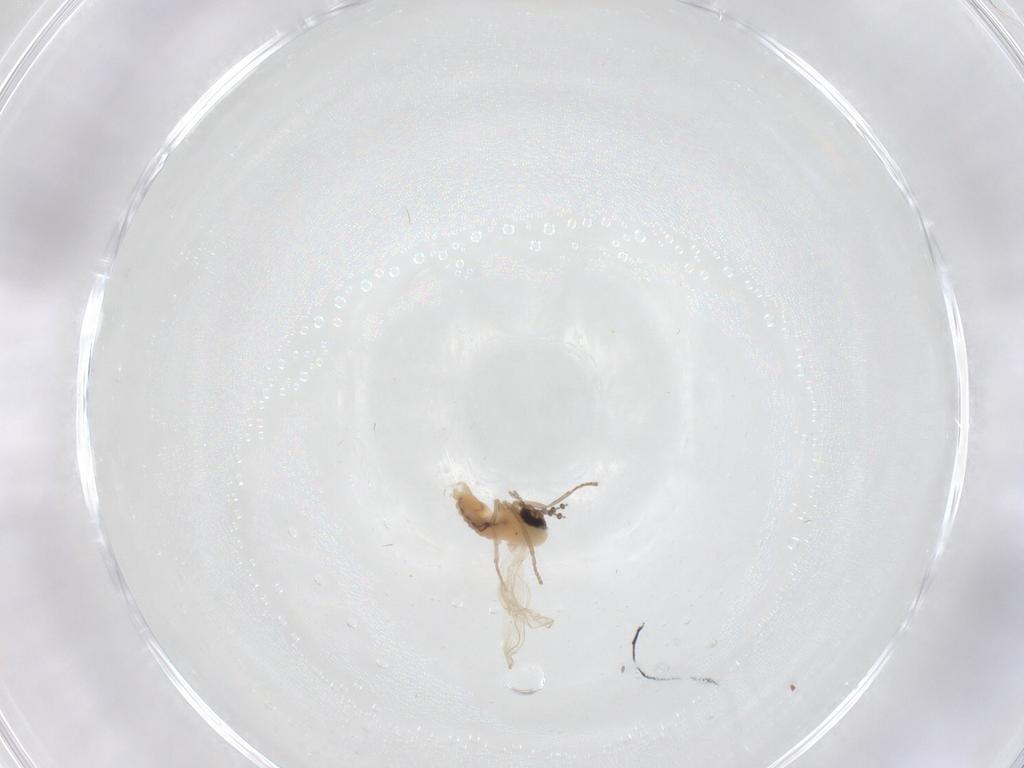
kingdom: Animalia
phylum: Arthropoda
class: Insecta
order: Diptera
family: Psychodidae
